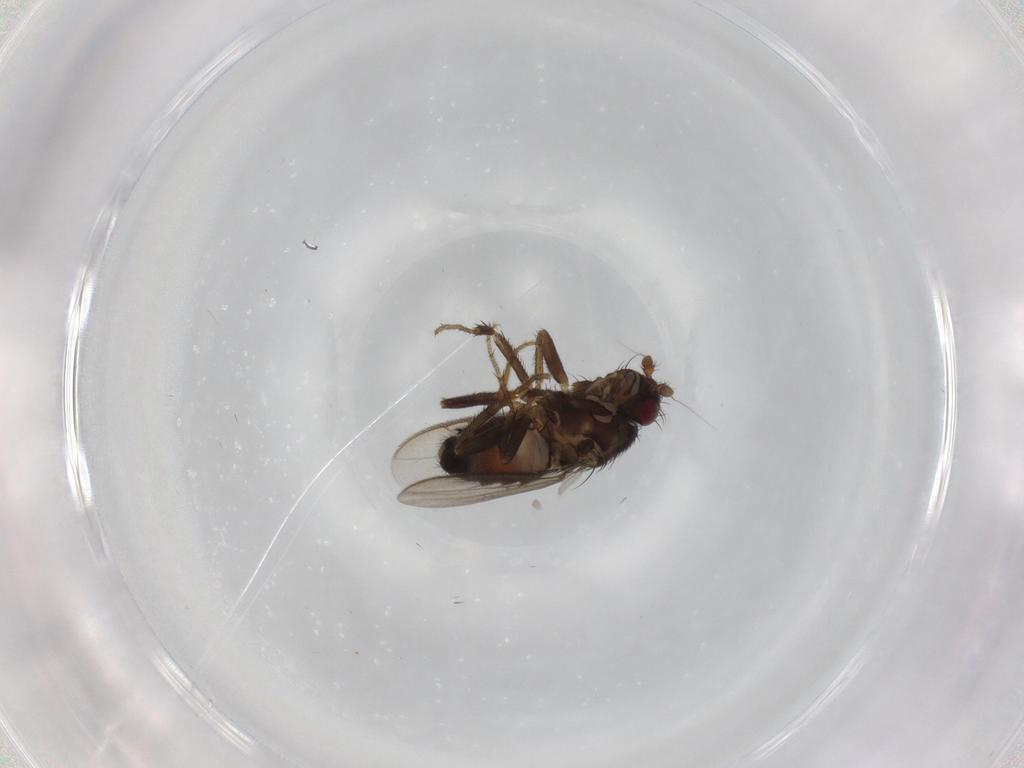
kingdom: Animalia
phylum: Arthropoda
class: Insecta
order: Diptera
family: Sphaeroceridae
